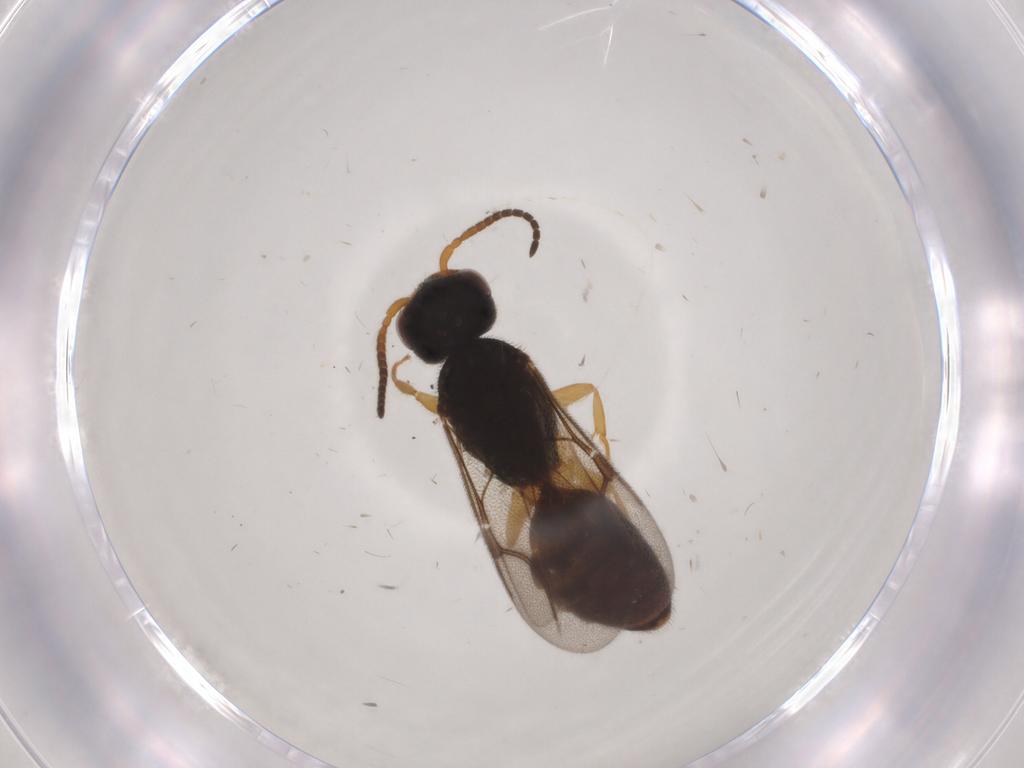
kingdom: Animalia
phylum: Arthropoda
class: Insecta
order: Hymenoptera
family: Bethylidae
